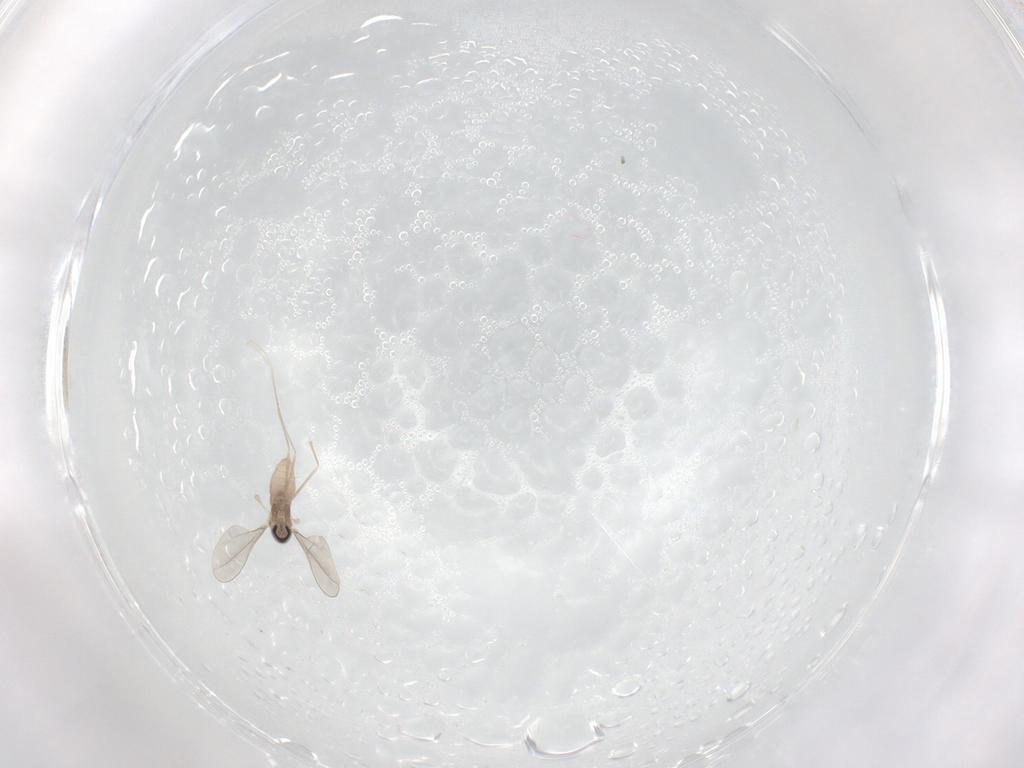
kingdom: Animalia
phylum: Arthropoda
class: Insecta
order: Diptera
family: Cecidomyiidae
